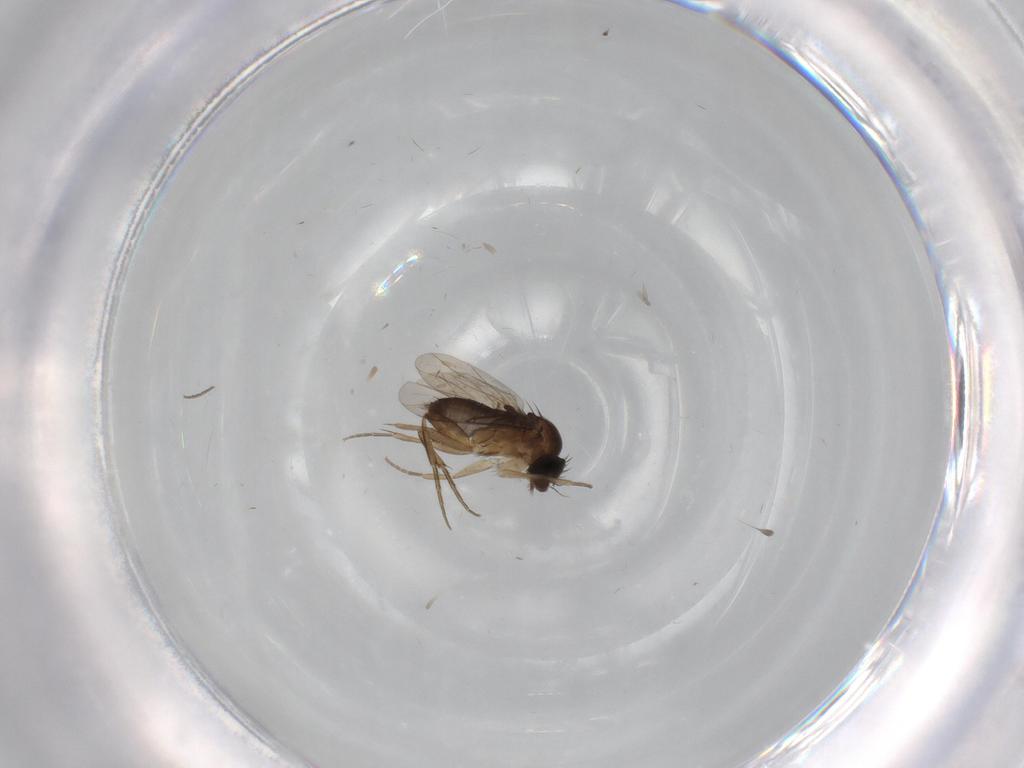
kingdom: Animalia
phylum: Arthropoda
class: Insecta
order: Diptera
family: Phoridae
